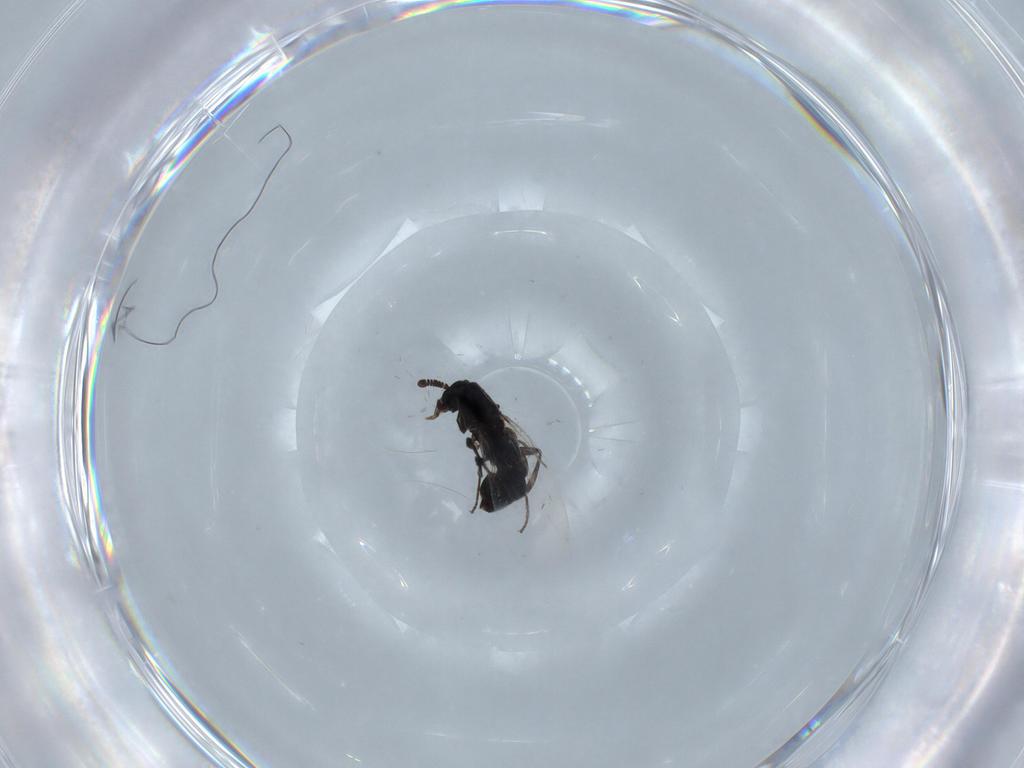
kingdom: Animalia
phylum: Arthropoda
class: Insecta
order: Diptera
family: Scatopsidae
